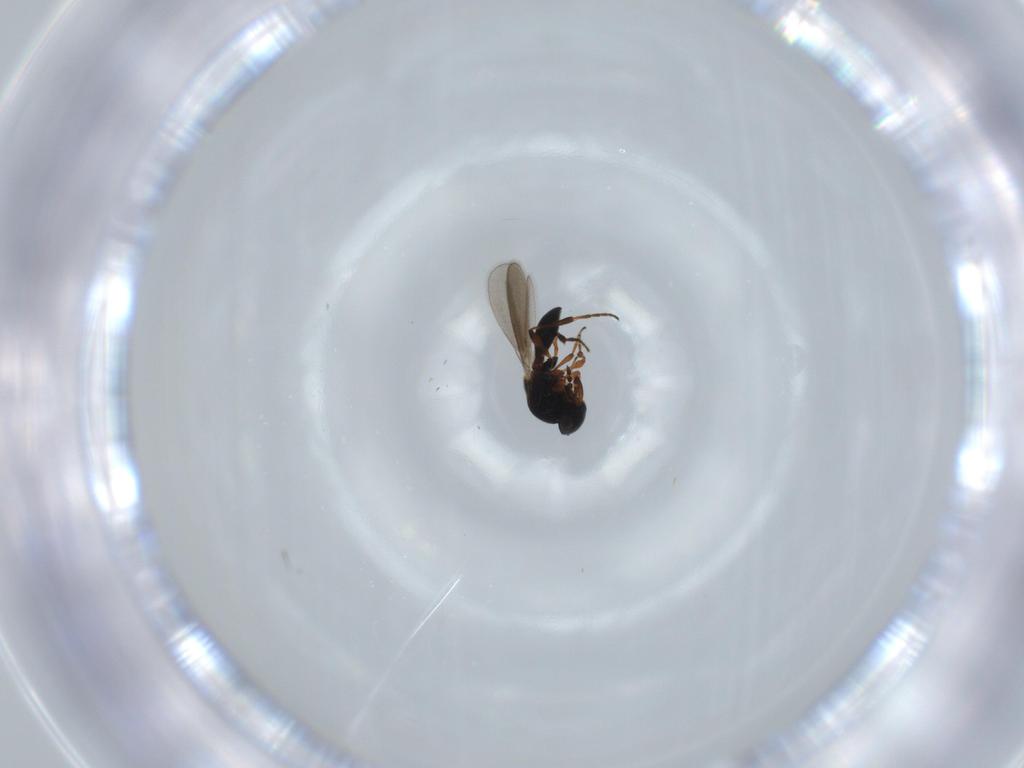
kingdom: Animalia
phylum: Arthropoda
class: Insecta
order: Hymenoptera
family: Platygastridae
